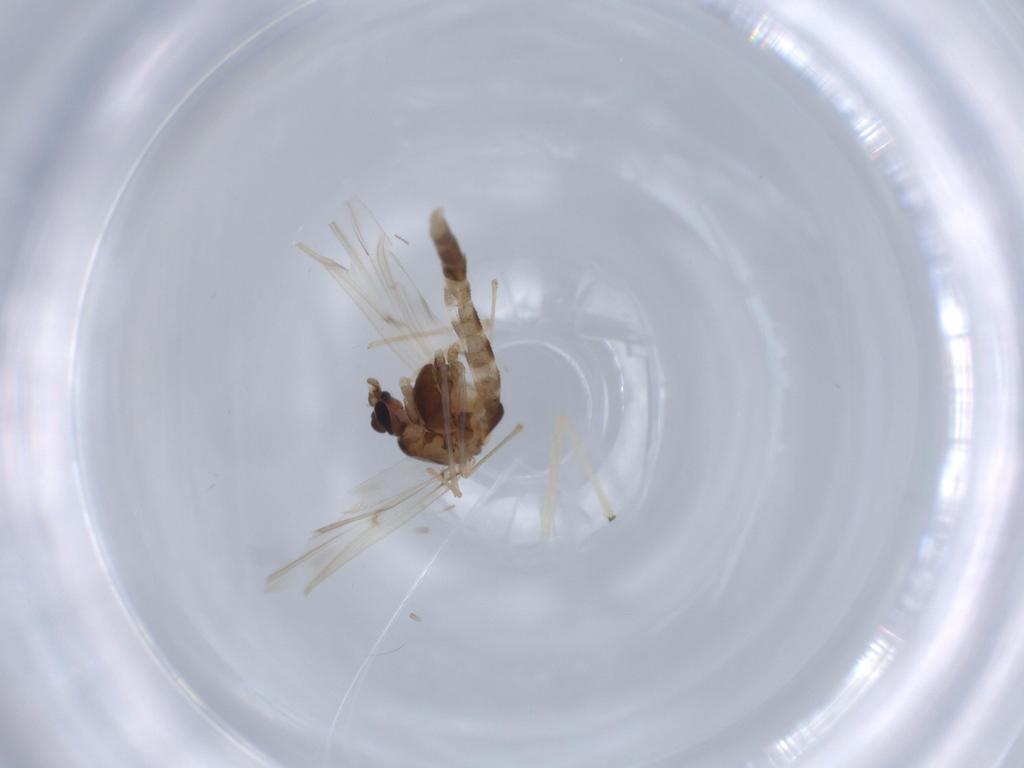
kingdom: Animalia
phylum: Arthropoda
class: Insecta
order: Diptera
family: Chironomidae
